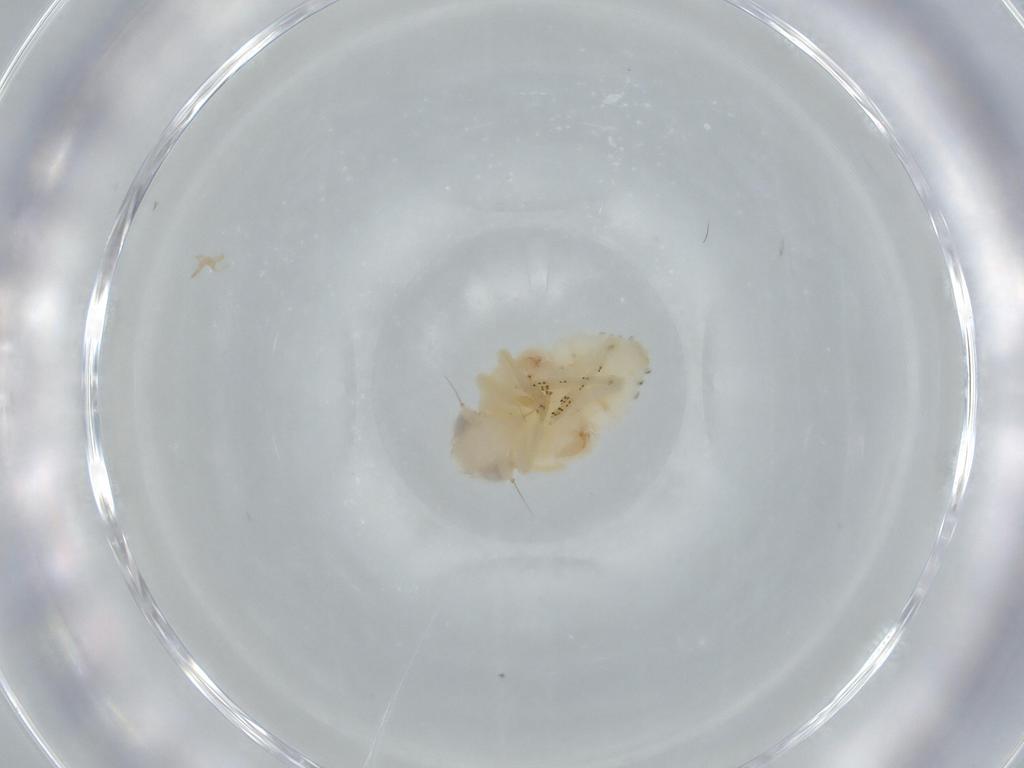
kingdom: Animalia
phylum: Arthropoda
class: Insecta
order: Hemiptera
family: Nogodinidae
